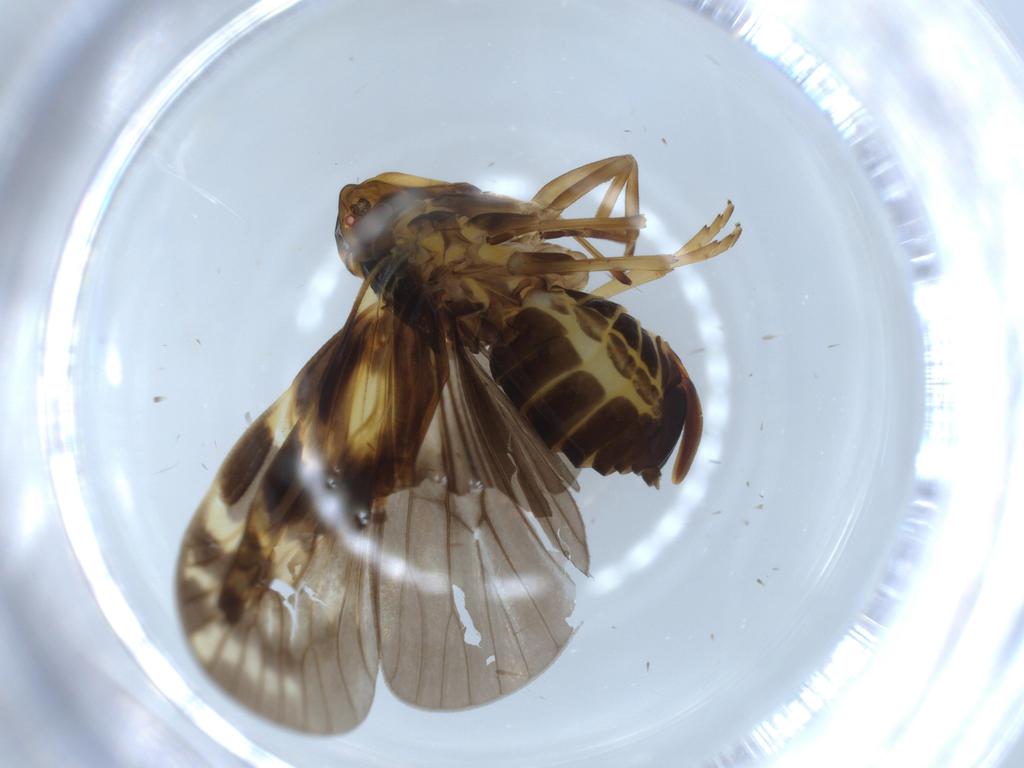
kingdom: Animalia
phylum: Arthropoda
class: Insecta
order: Hemiptera
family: Cixiidae
